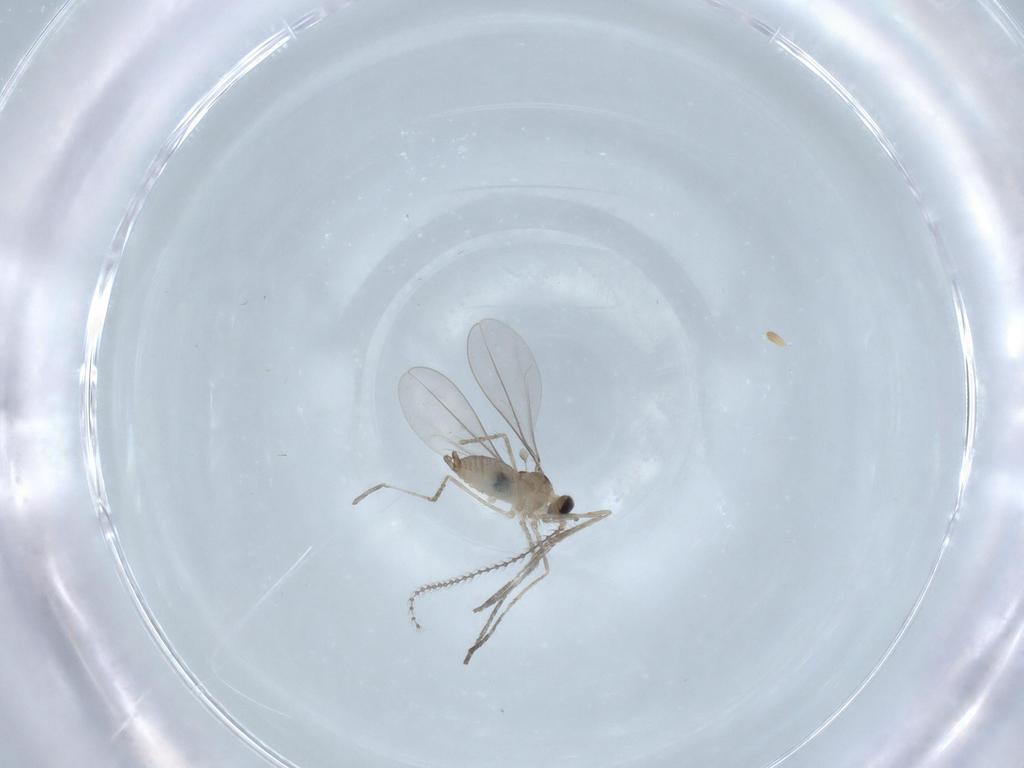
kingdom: Animalia
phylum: Arthropoda
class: Insecta
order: Diptera
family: Cecidomyiidae
